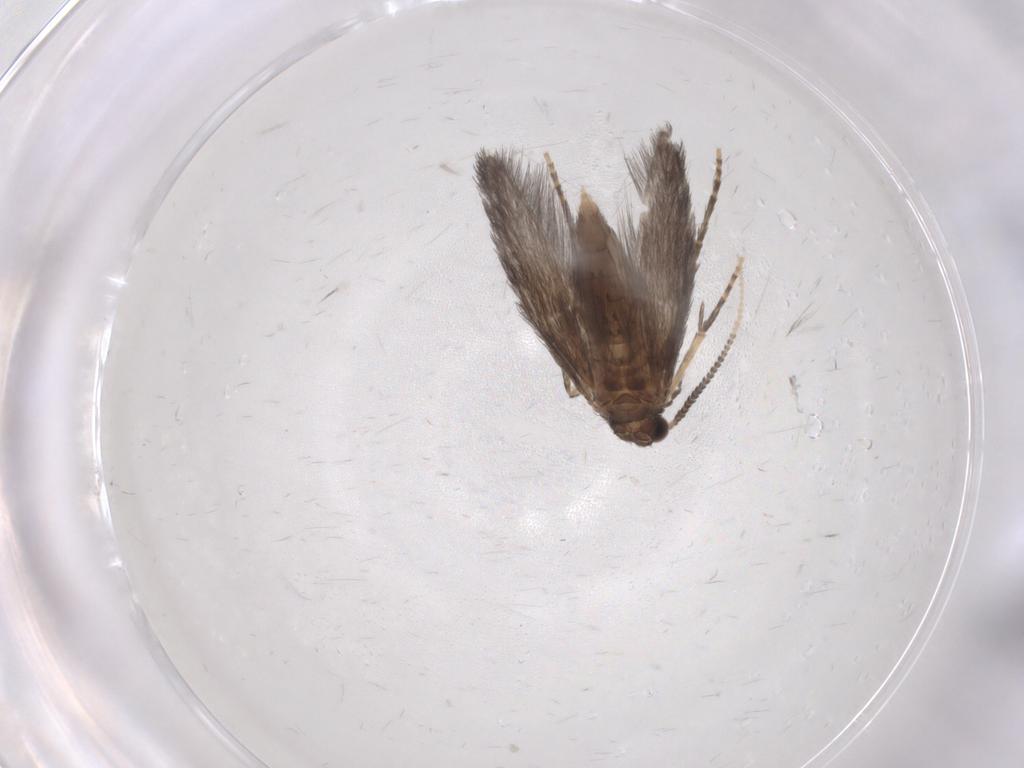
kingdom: Animalia
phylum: Arthropoda
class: Insecta
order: Trichoptera
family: Hydroptilidae
